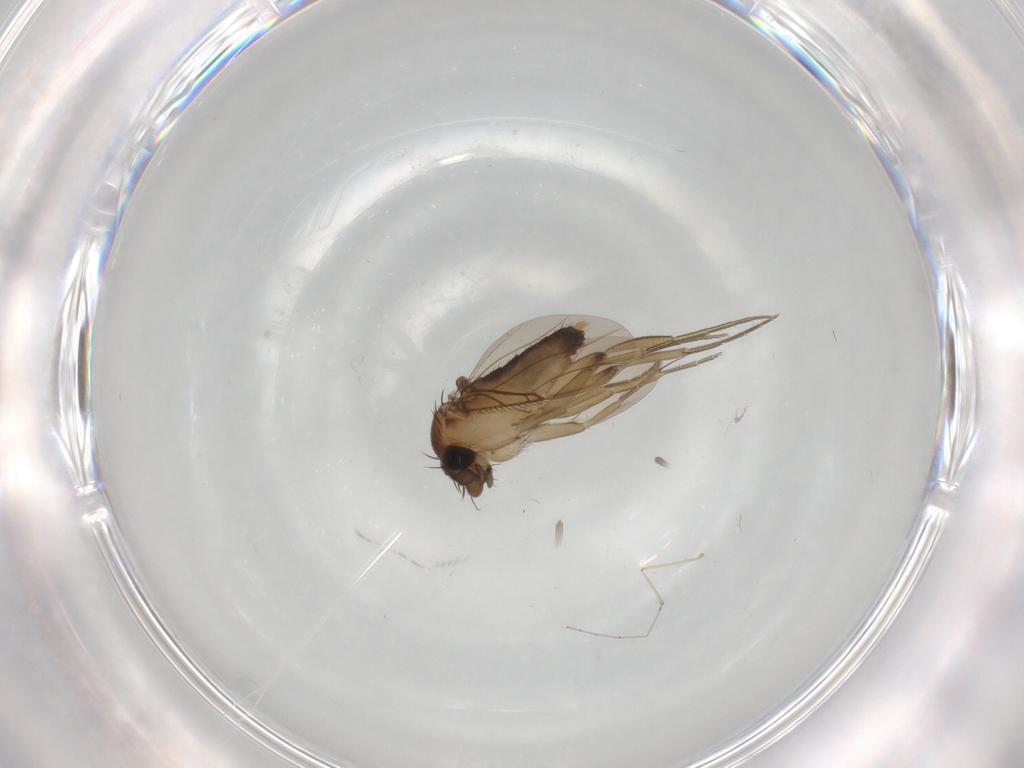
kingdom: Animalia
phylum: Arthropoda
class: Insecta
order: Diptera
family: Phoridae
